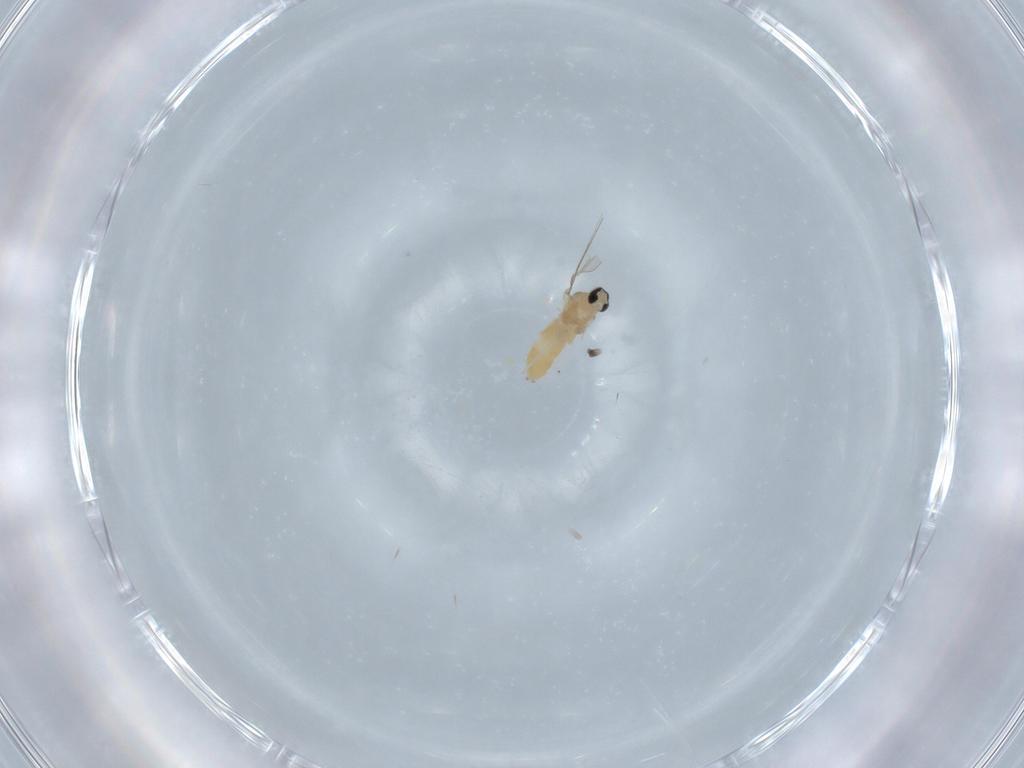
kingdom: Animalia
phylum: Arthropoda
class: Insecta
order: Diptera
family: Cecidomyiidae
